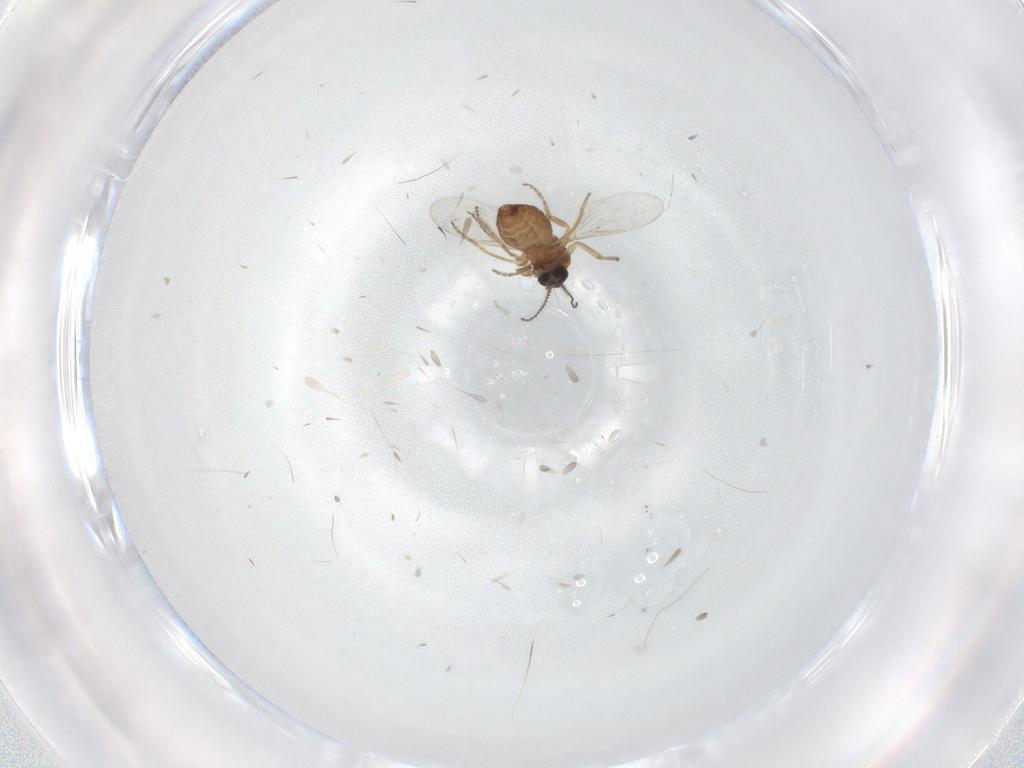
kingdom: Animalia
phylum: Arthropoda
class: Insecta
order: Diptera
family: Ceratopogonidae
